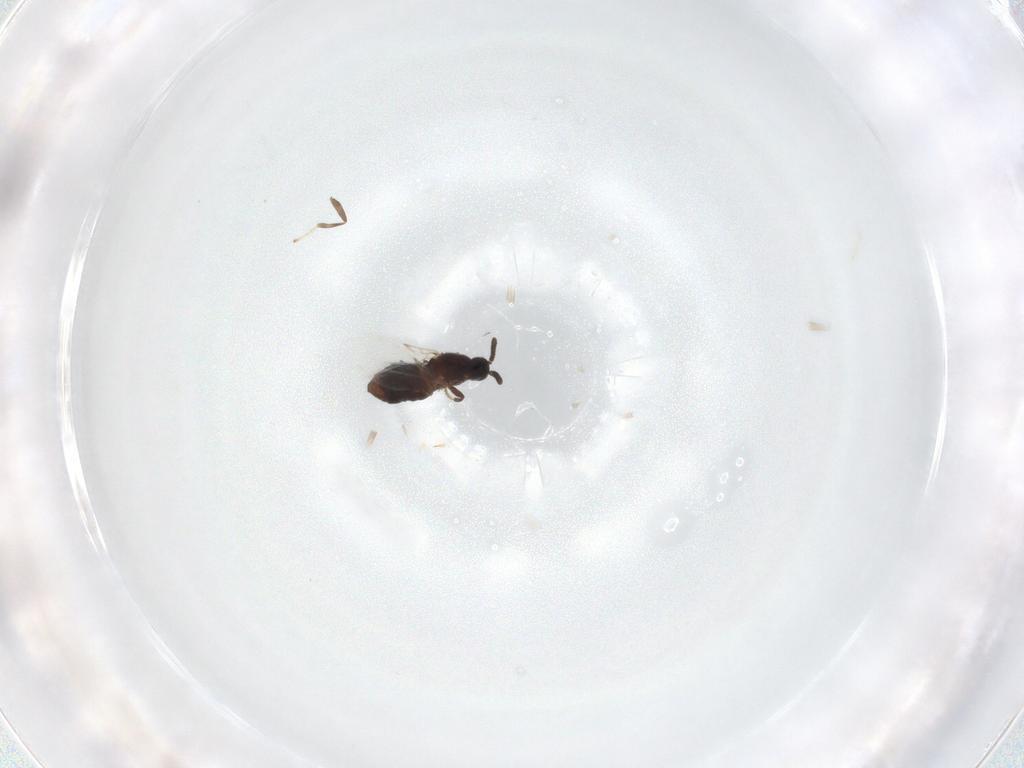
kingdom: Animalia
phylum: Arthropoda
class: Insecta
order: Diptera
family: Scatopsidae
